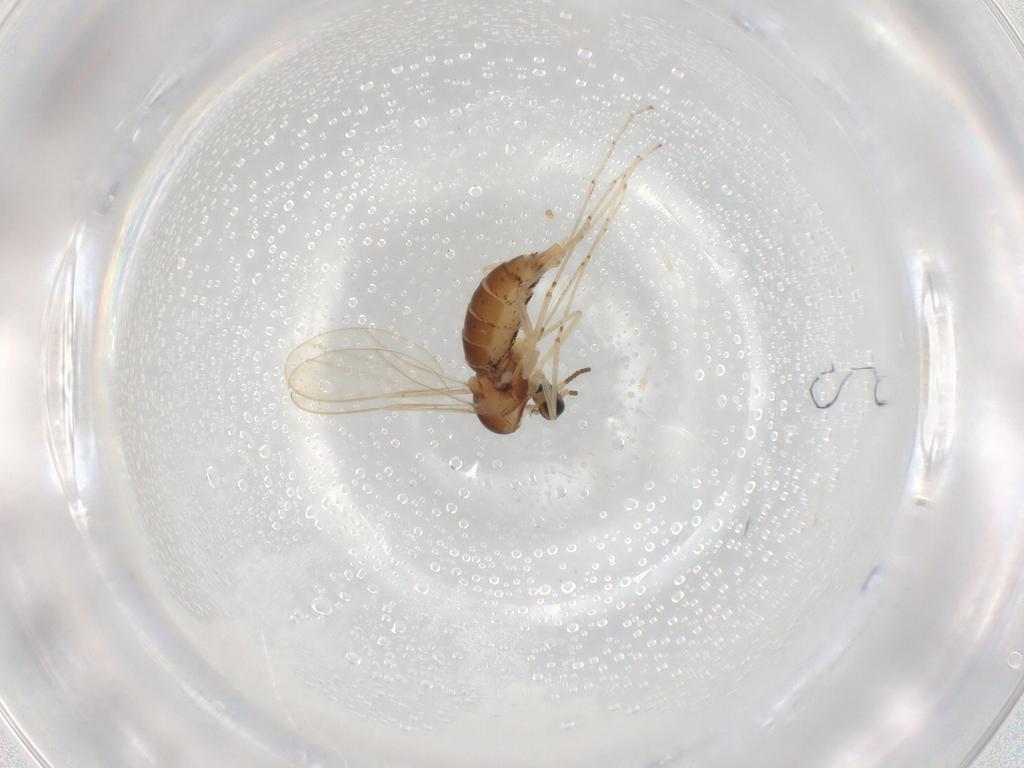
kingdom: Animalia
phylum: Arthropoda
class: Insecta
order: Diptera
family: Cecidomyiidae
